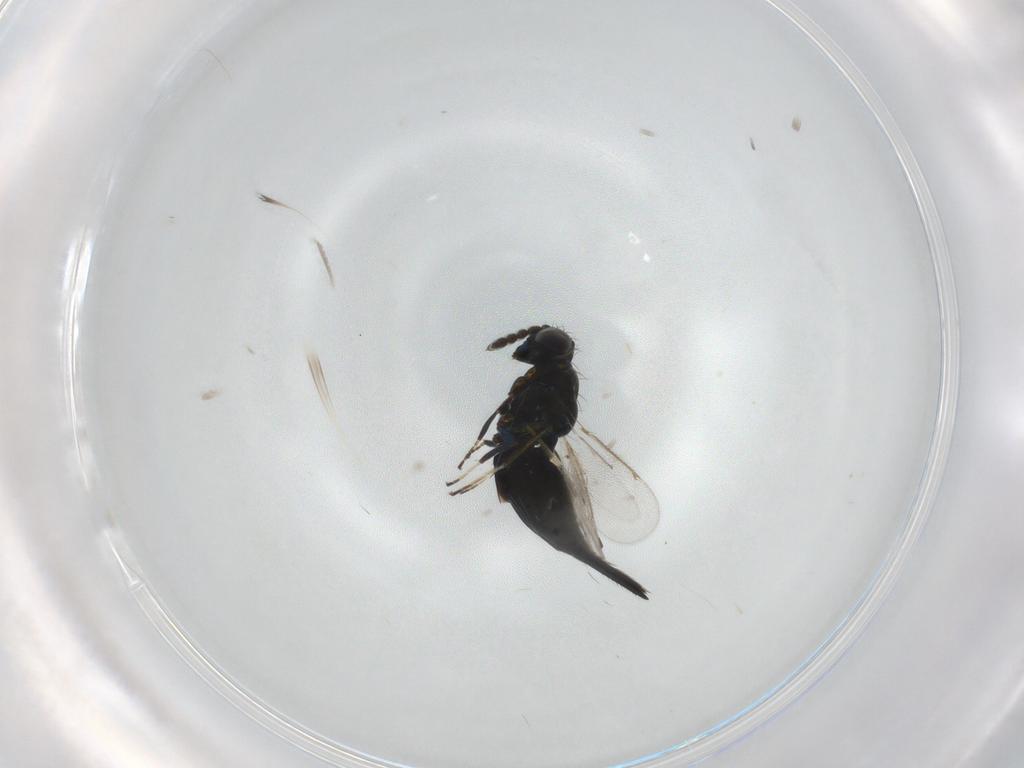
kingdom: Animalia
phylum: Arthropoda
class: Insecta
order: Hymenoptera
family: Eulophidae
